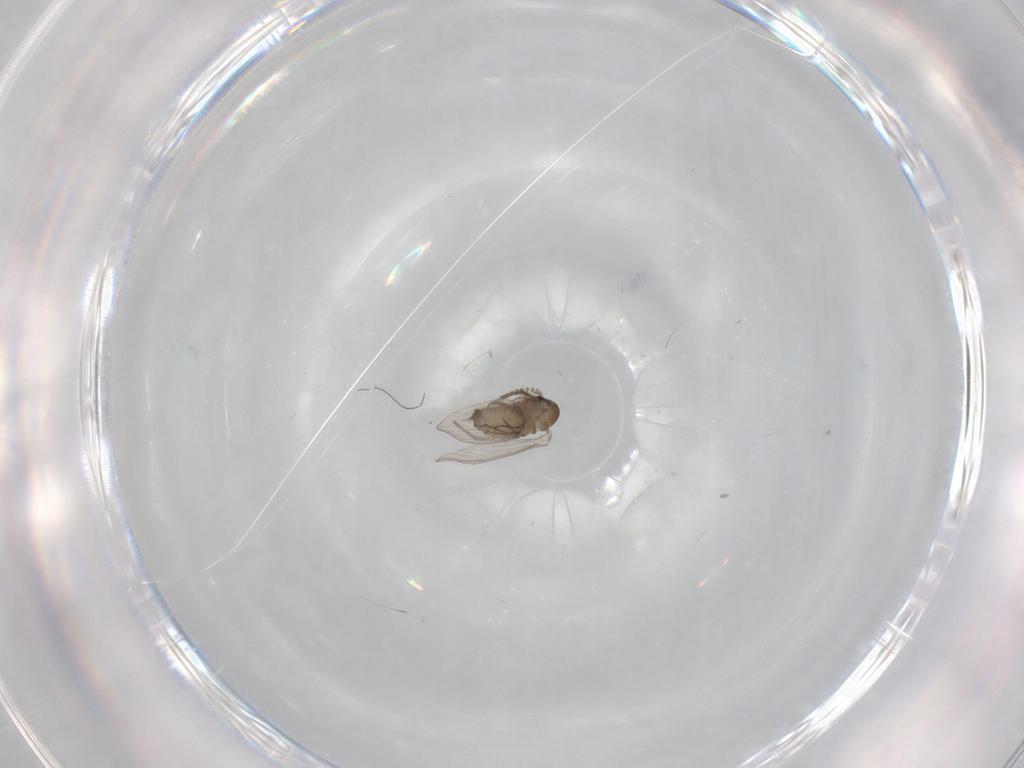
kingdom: Animalia
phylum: Arthropoda
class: Insecta
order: Diptera
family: Psychodidae
